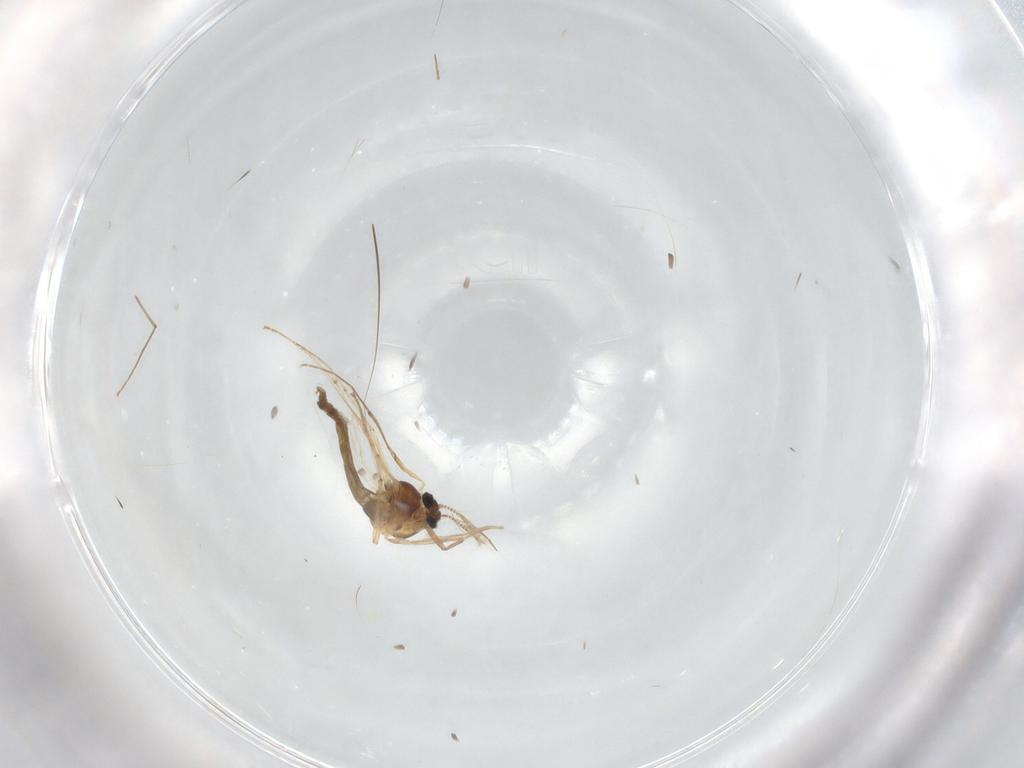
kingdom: Animalia
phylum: Arthropoda
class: Insecta
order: Diptera
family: Chironomidae
